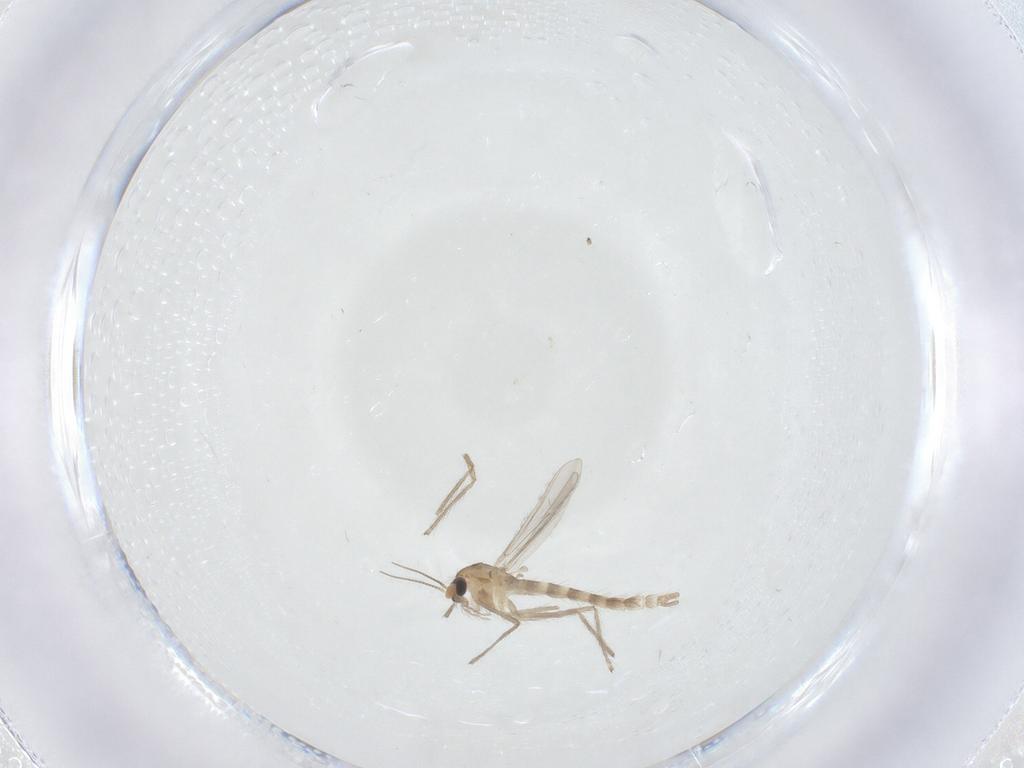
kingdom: Animalia
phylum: Arthropoda
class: Insecta
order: Diptera
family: Chironomidae
